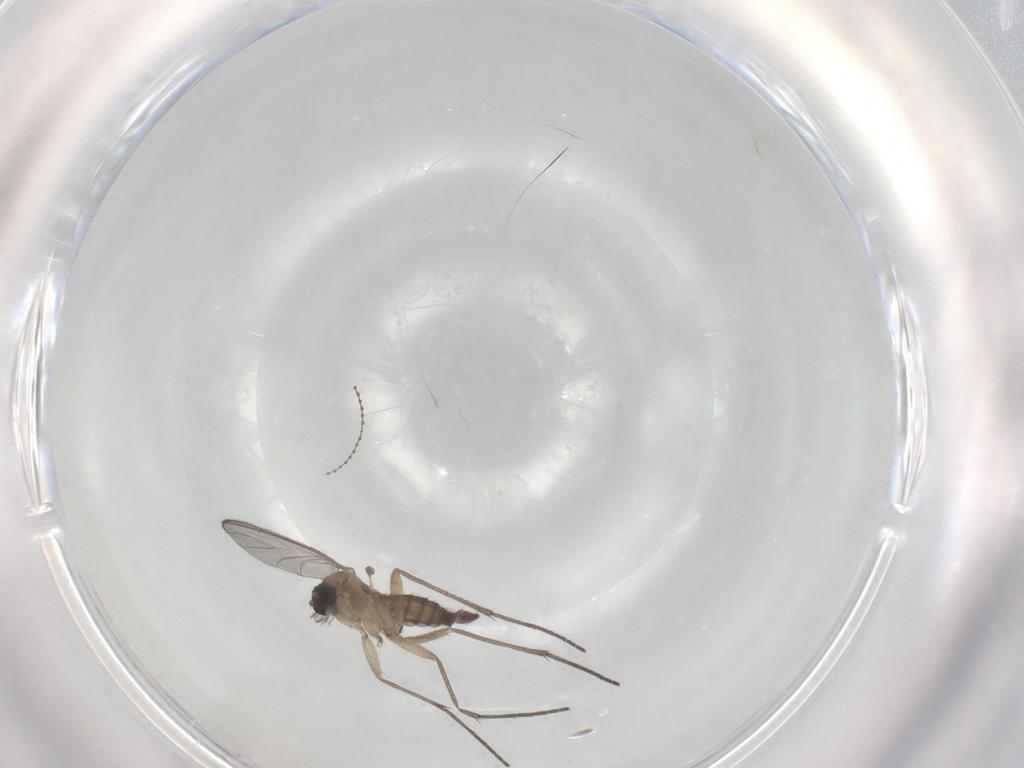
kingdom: Animalia
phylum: Arthropoda
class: Insecta
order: Diptera
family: Sciaridae
